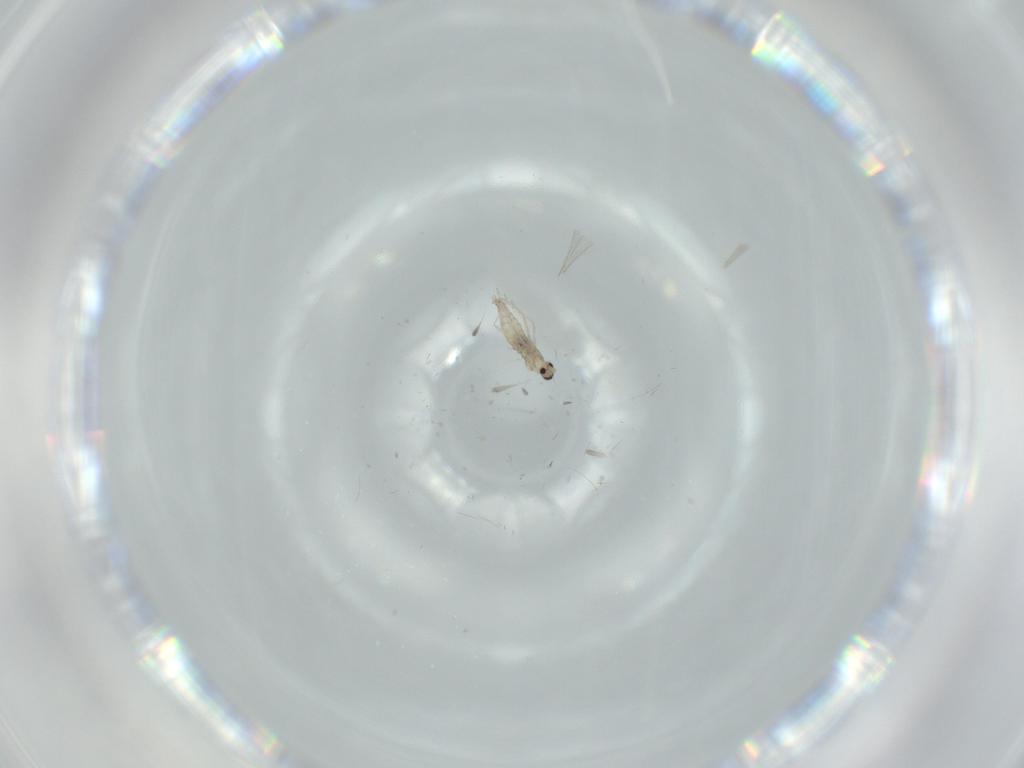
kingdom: Animalia
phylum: Arthropoda
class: Insecta
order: Diptera
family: Cecidomyiidae
